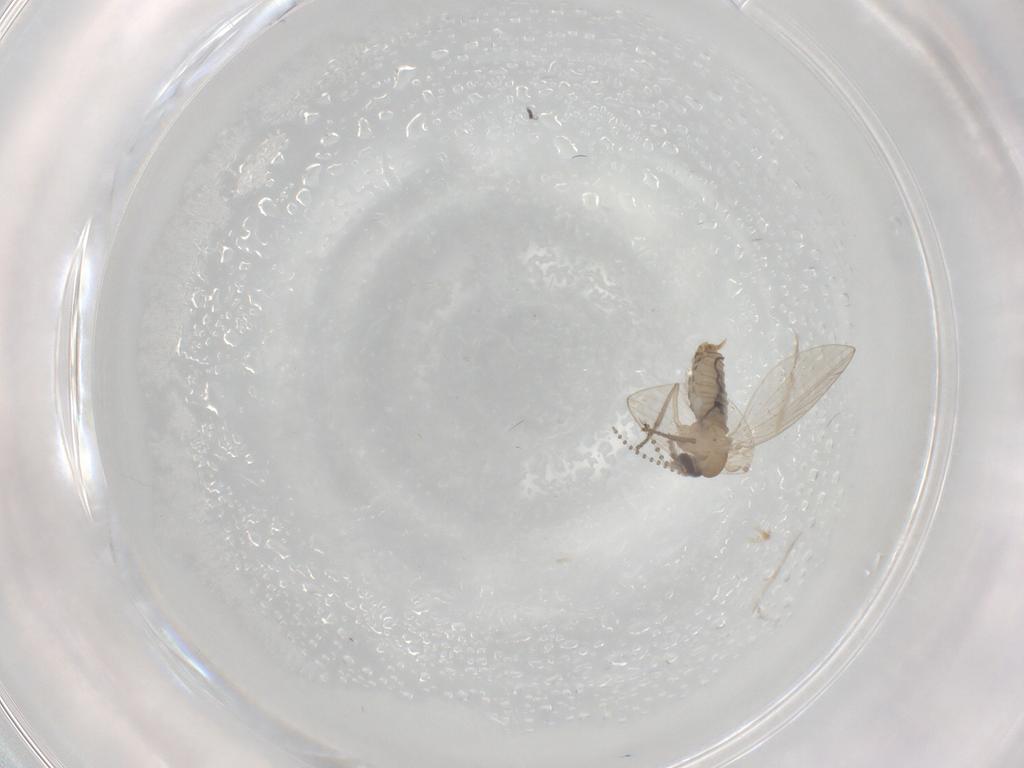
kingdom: Animalia
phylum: Arthropoda
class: Insecta
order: Diptera
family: Psychodidae
